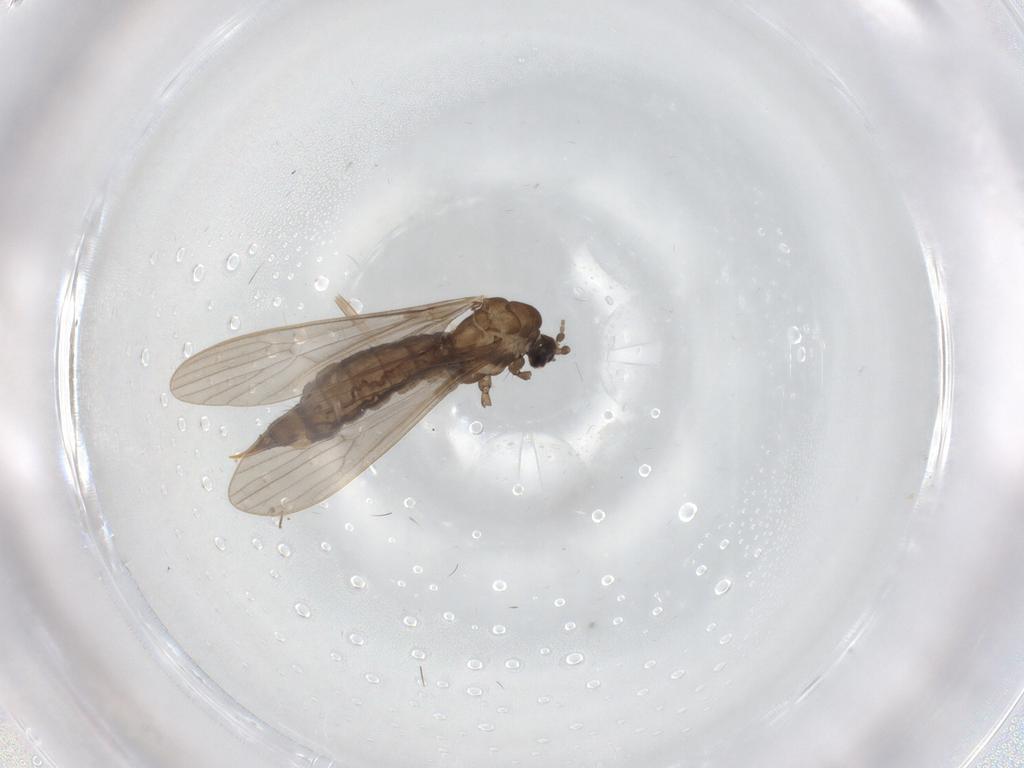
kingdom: Animalia
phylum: Arthropoda
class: Insecta
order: Diptera
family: Limoniidae
